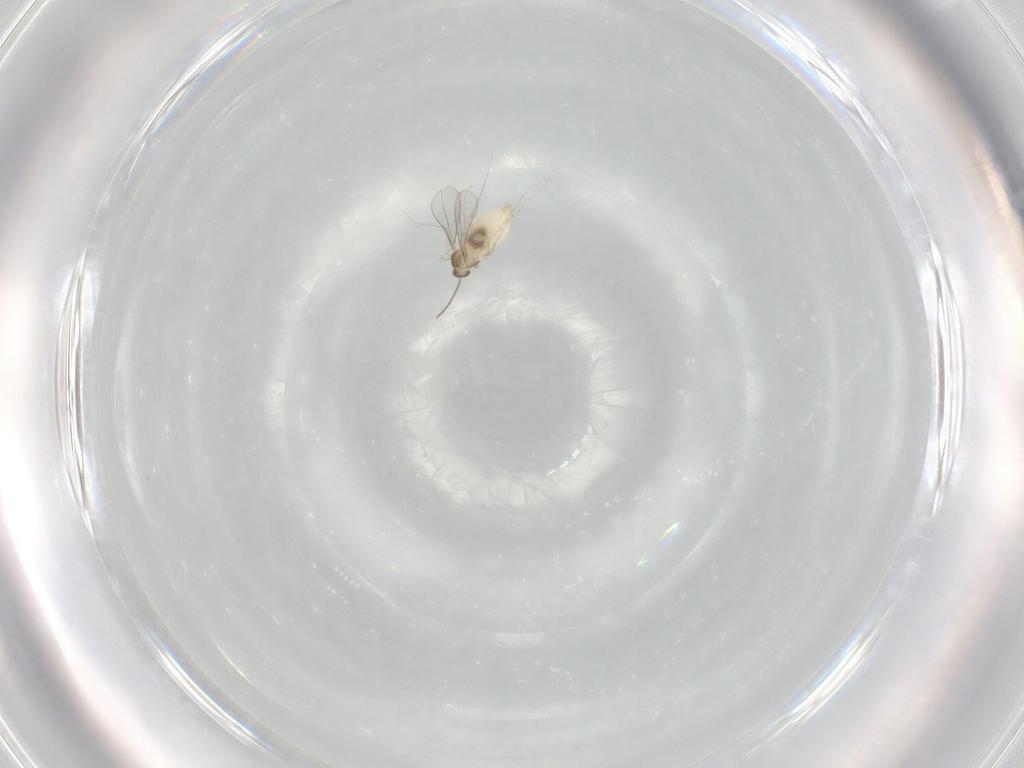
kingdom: Animalia
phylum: Arthropoda
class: Insecta
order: Diptera
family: Cecidomyiidae
